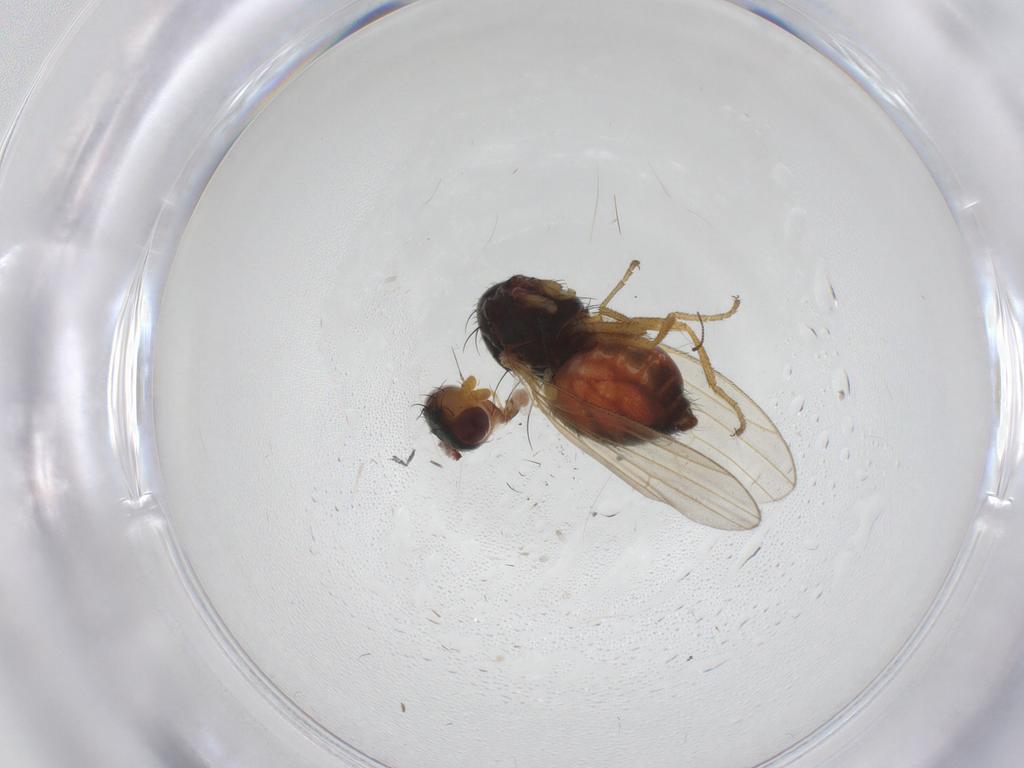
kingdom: Animalia
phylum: Arthropoda
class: Insecta
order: Diptera
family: Heleomyzidae
